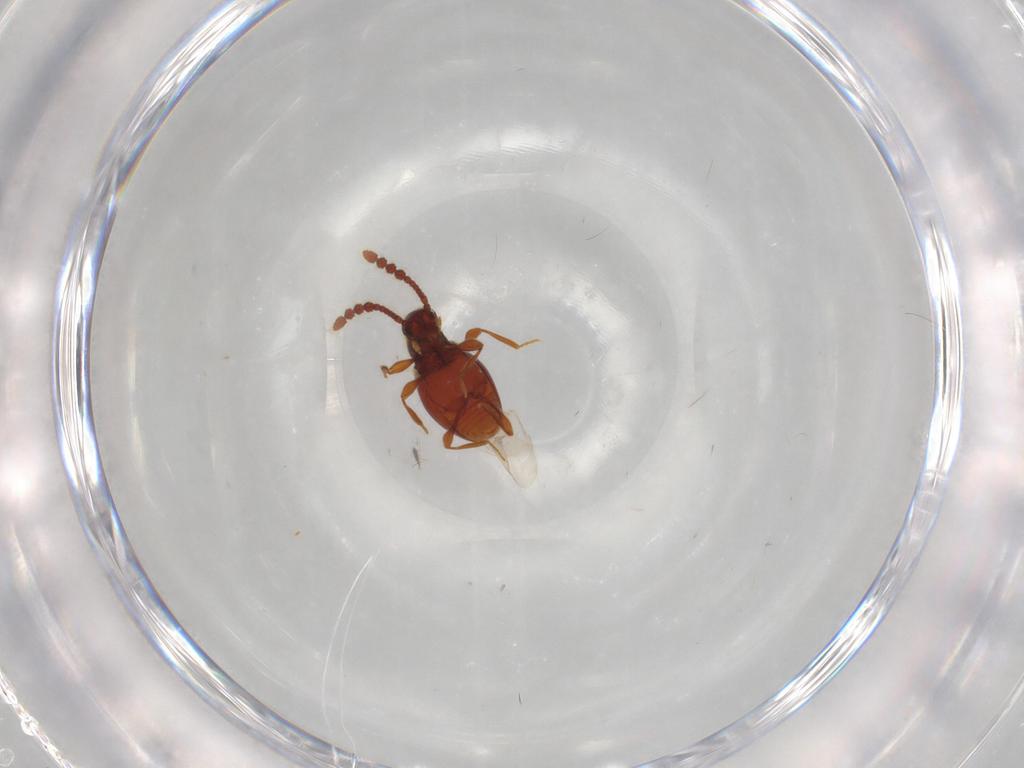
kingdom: Animalia
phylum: Arthropoda
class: Insecta
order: Coleoptera
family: Staphylinidae
